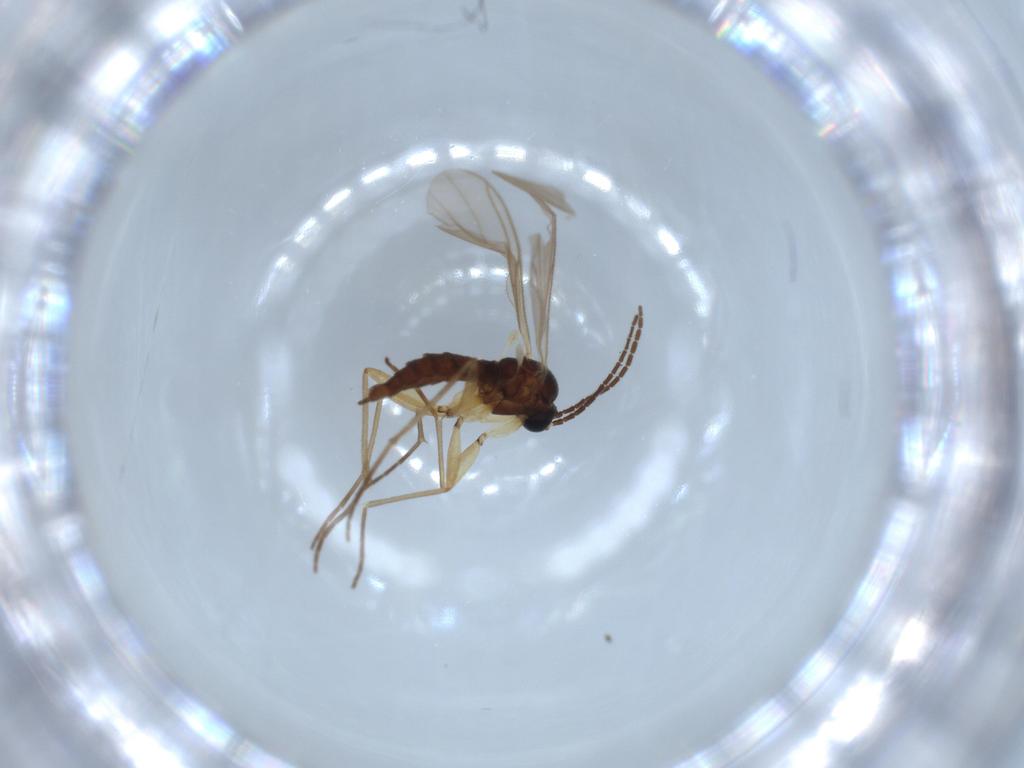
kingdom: Animalia
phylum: Arthropoda
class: Insecta
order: Diptera
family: Sciaridae
